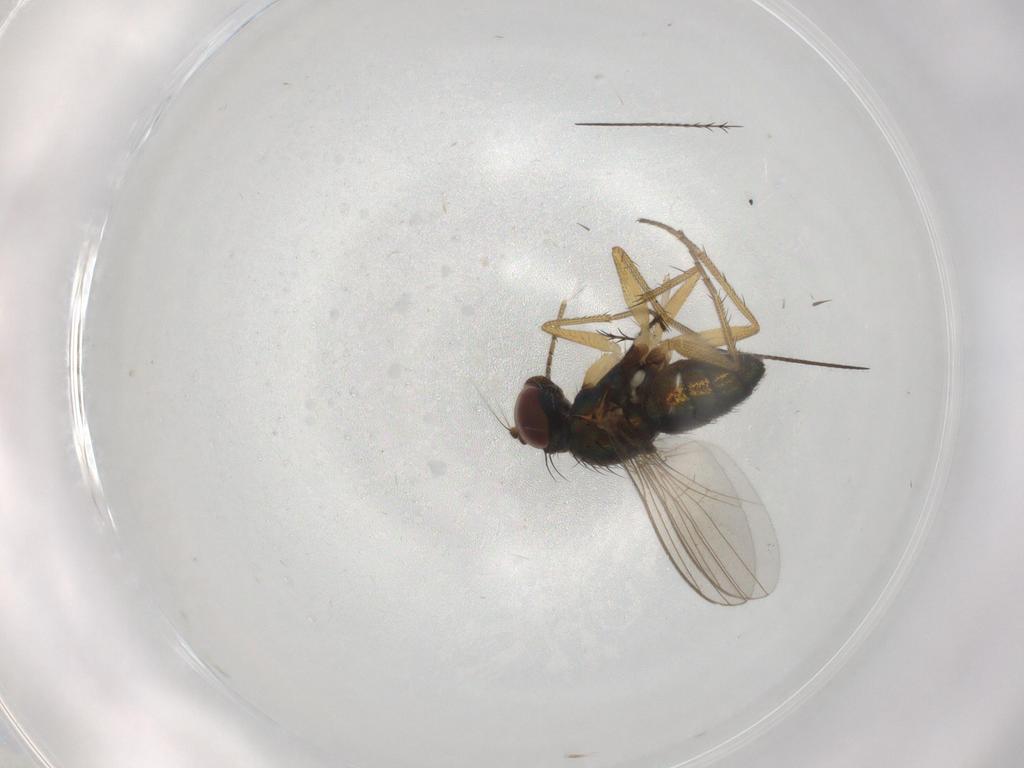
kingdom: Animalia
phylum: Arthropoda
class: Insecta
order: Diptera
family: Dolichopodidae
